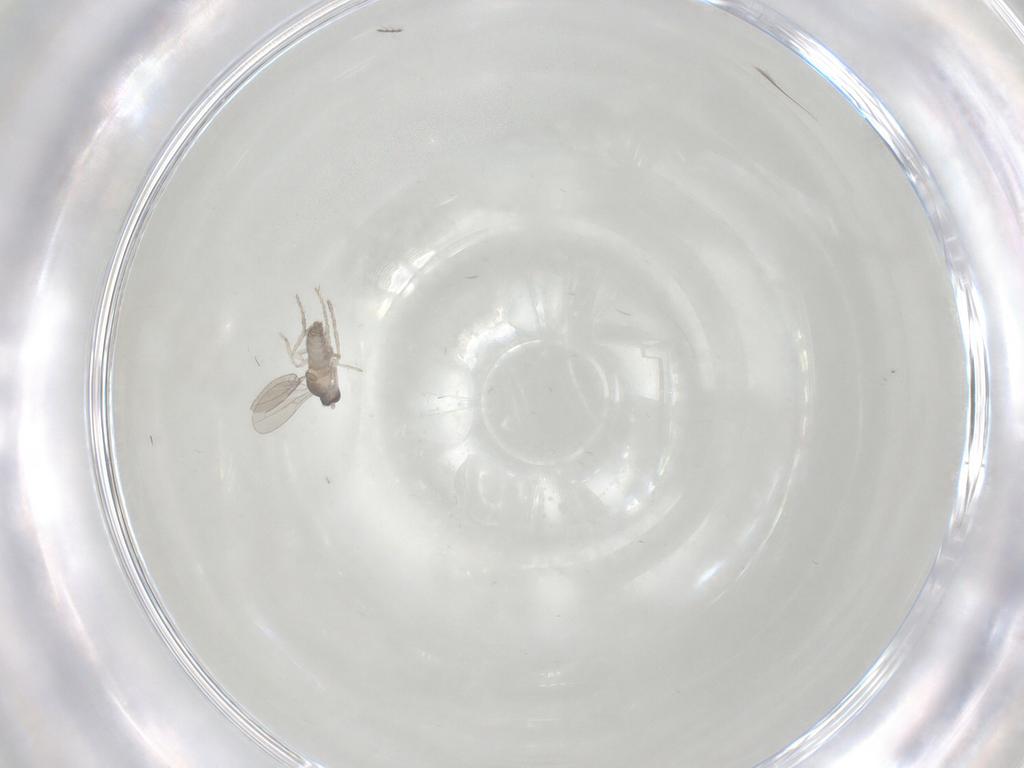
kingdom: Animalia
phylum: Arthropoda
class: Insecta
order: Diptera
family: Cecidomyiidae
